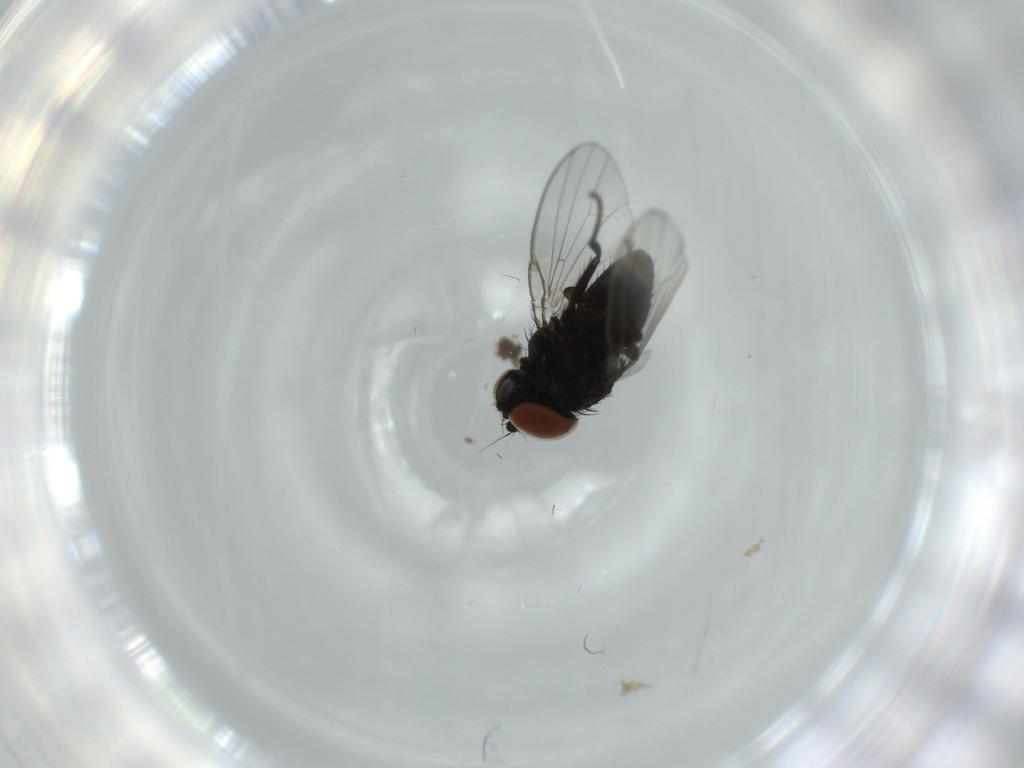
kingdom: Animalia
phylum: Arthropoda
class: Insecta
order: Diptera
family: Milichiidae
